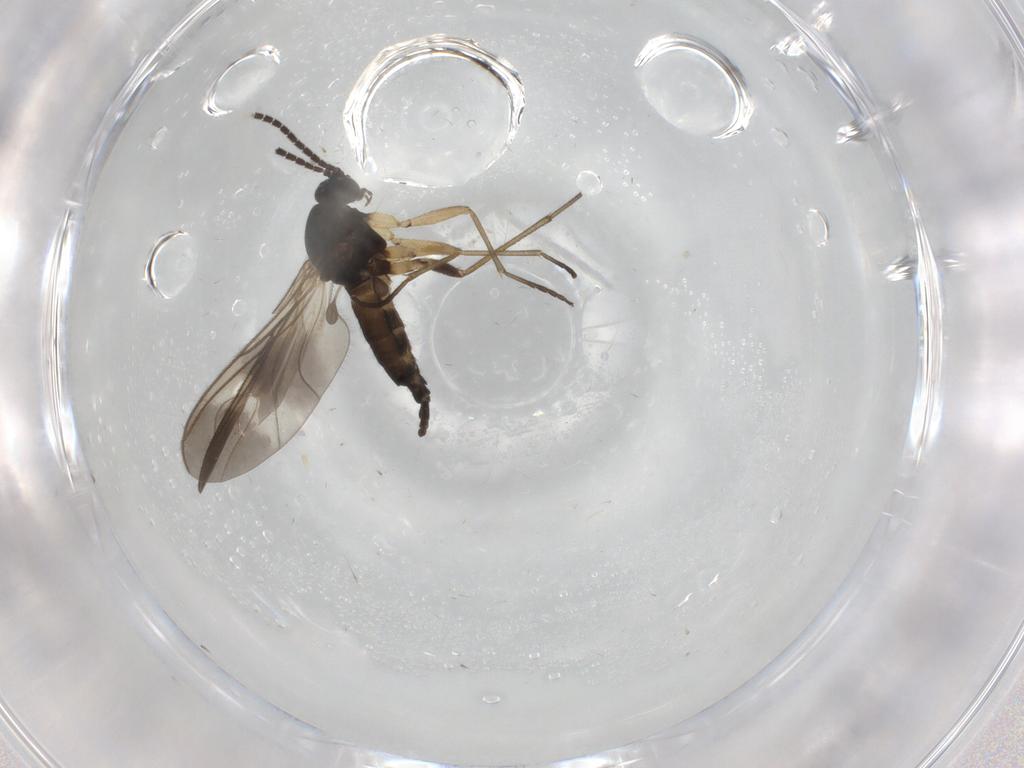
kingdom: Animalia
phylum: Arthropoda
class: Insecta
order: Diptera
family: Sciaridae
